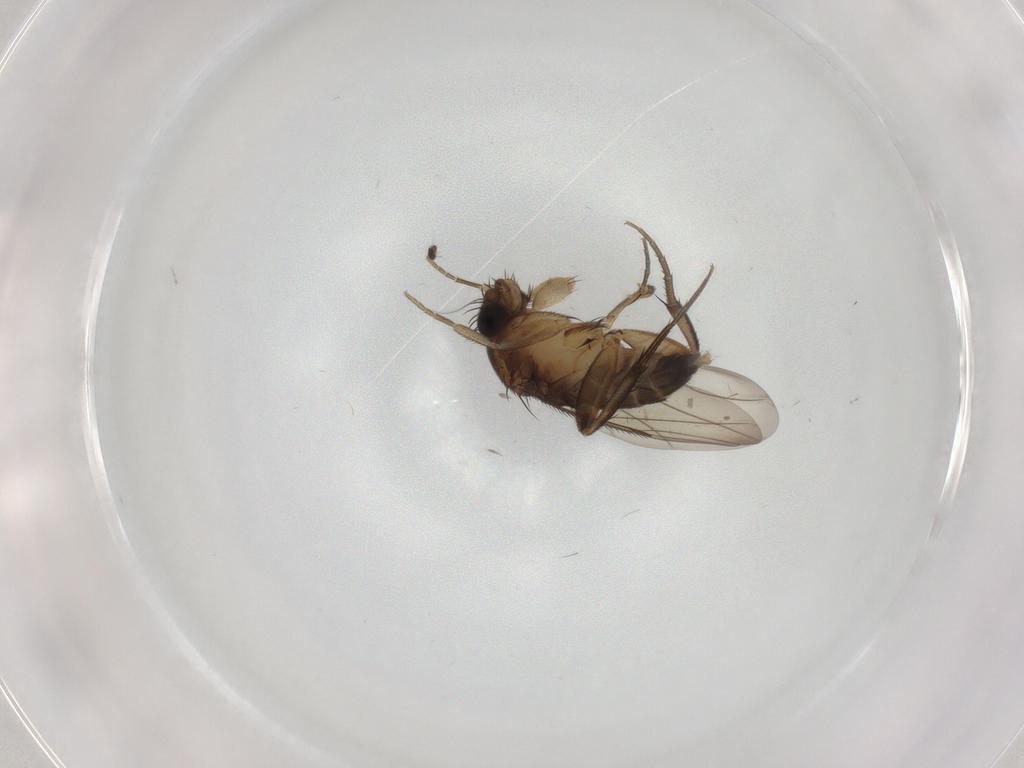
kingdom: Animalia
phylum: Arthropoda
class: Insecta
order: Diptera
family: Phoridae
